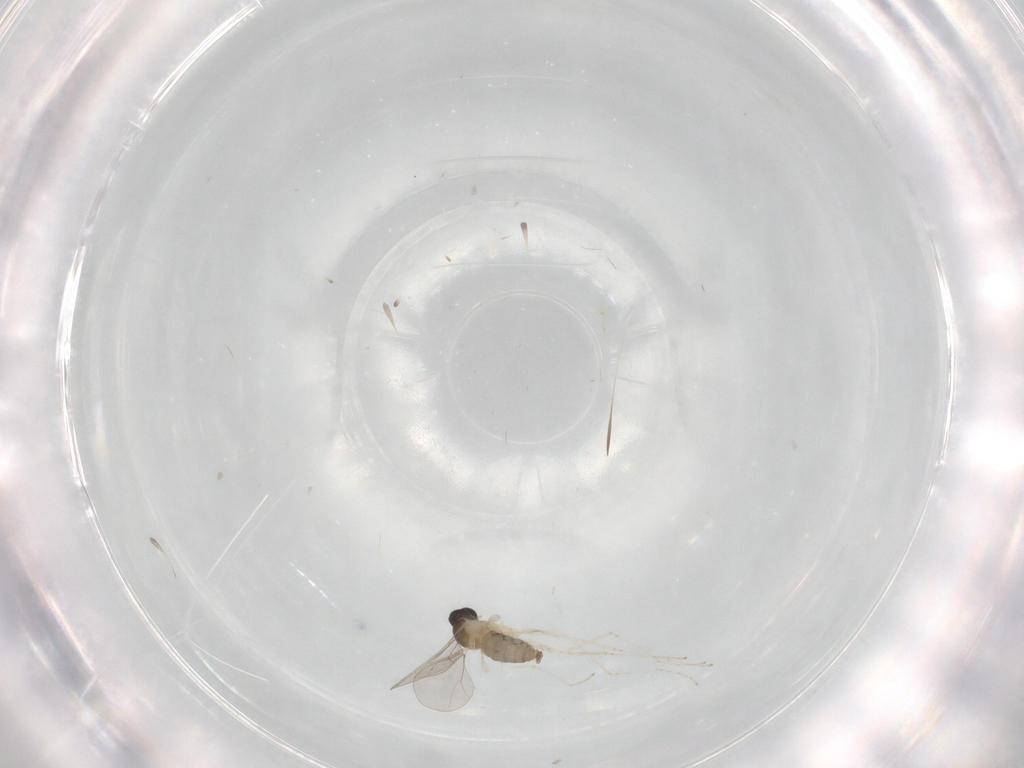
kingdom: Animalia
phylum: Arthropoda
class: Insecta
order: Diptera
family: Cecidomyiidae
